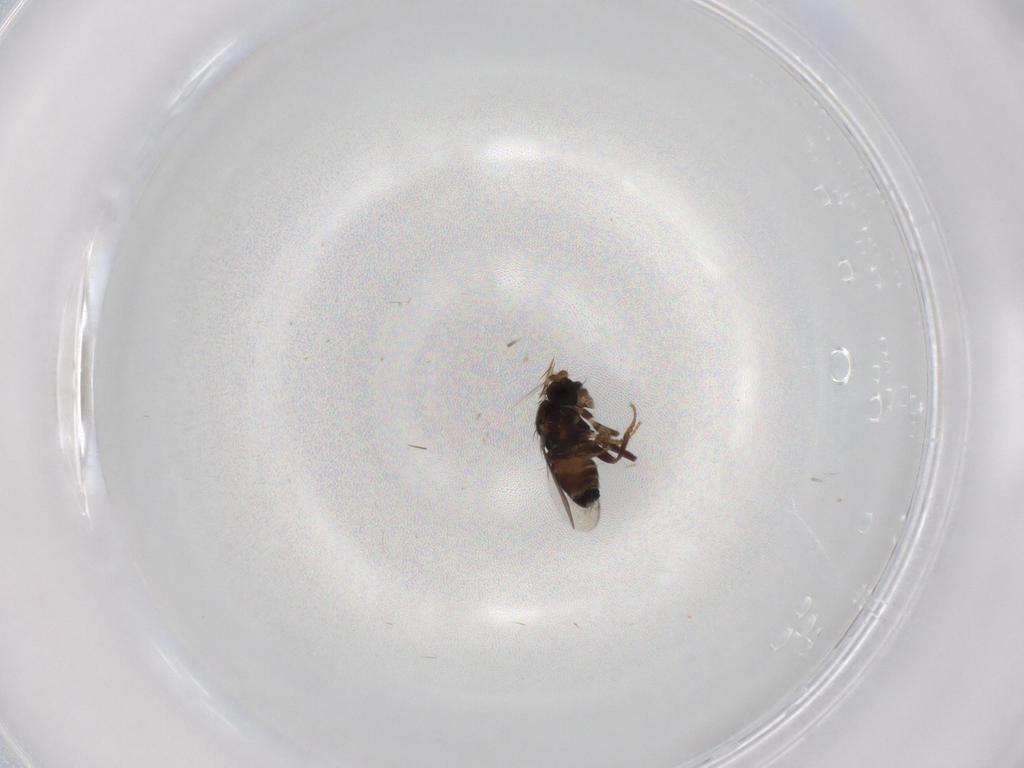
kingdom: Animalia
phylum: Arthropoda
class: Insecta
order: Diptera
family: Sphaeroceridae
